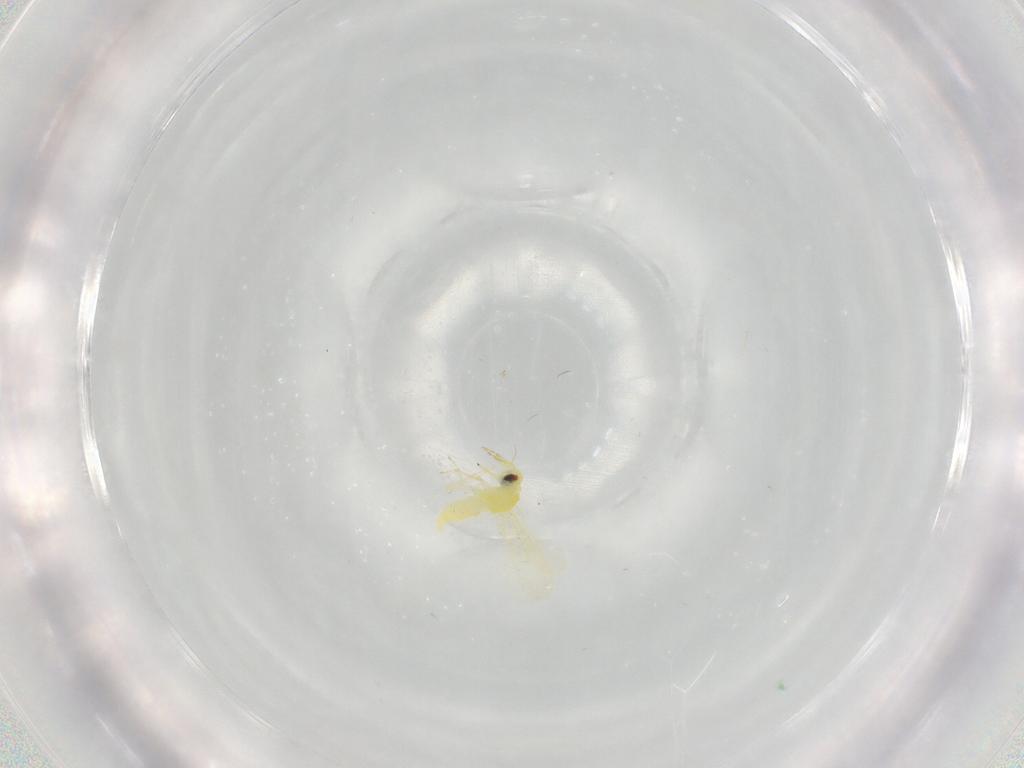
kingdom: Animalia
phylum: Arthropoda
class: Insecta
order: Hemiptera
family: Aleyrodidae
